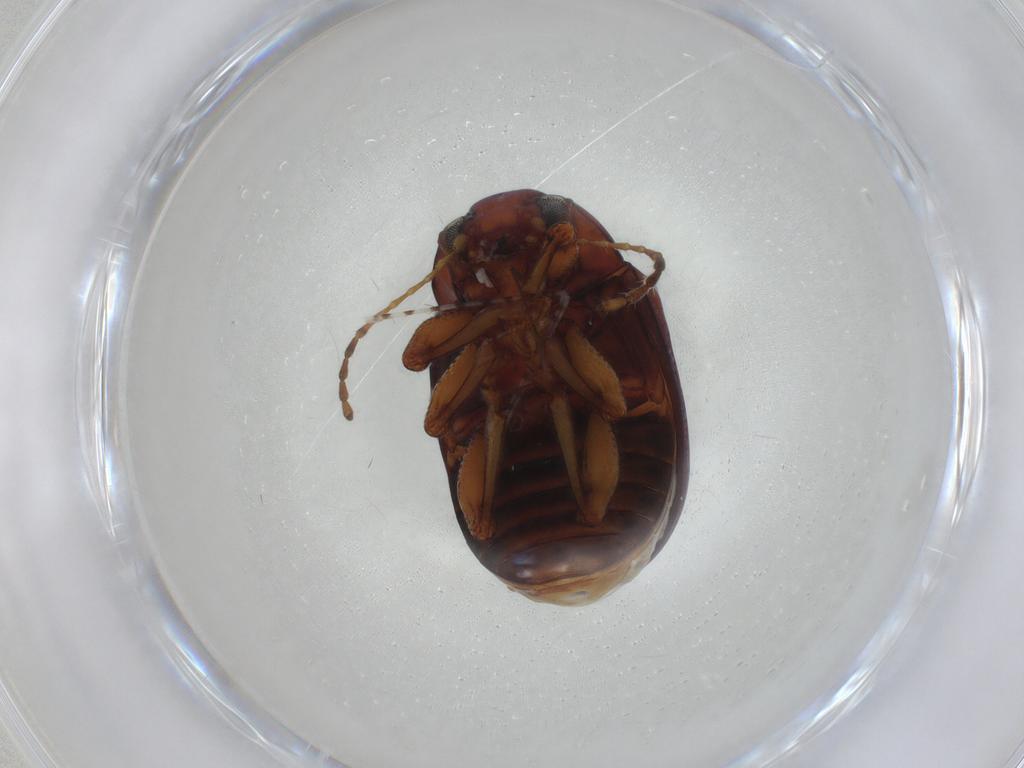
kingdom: Animalia
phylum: Arthropoda
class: Insecta
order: Coleoptera
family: Chrysomelidae
